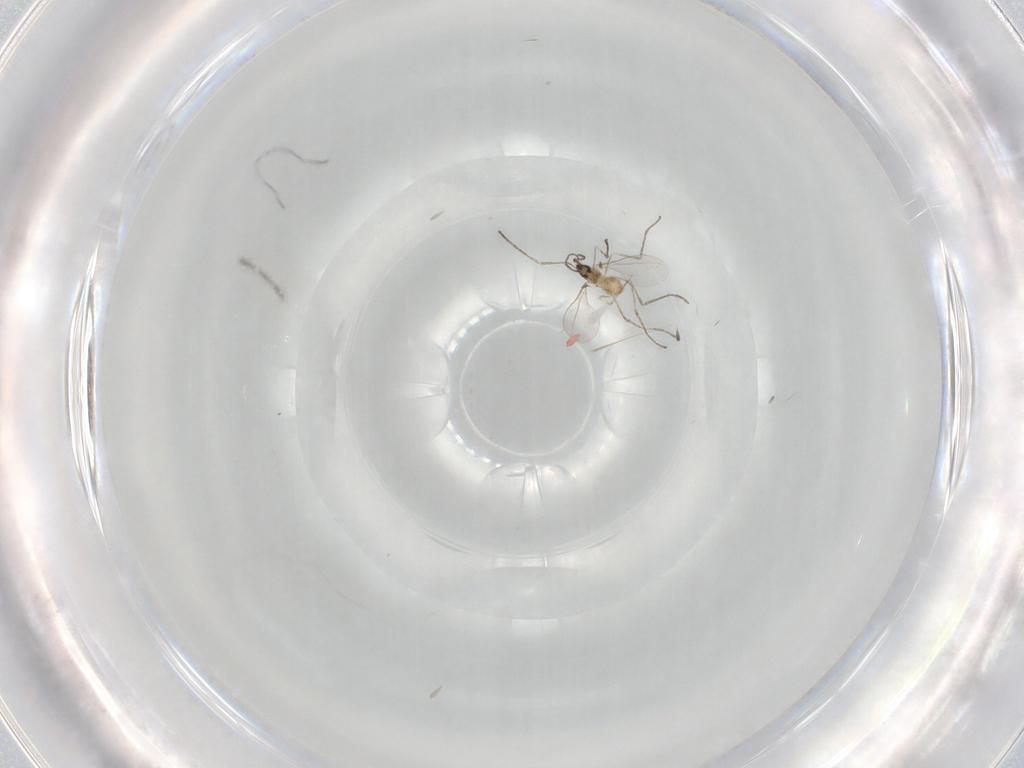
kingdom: Animalia
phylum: Arthropoda
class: Insecta
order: Diptera
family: Cecidomyiidae
